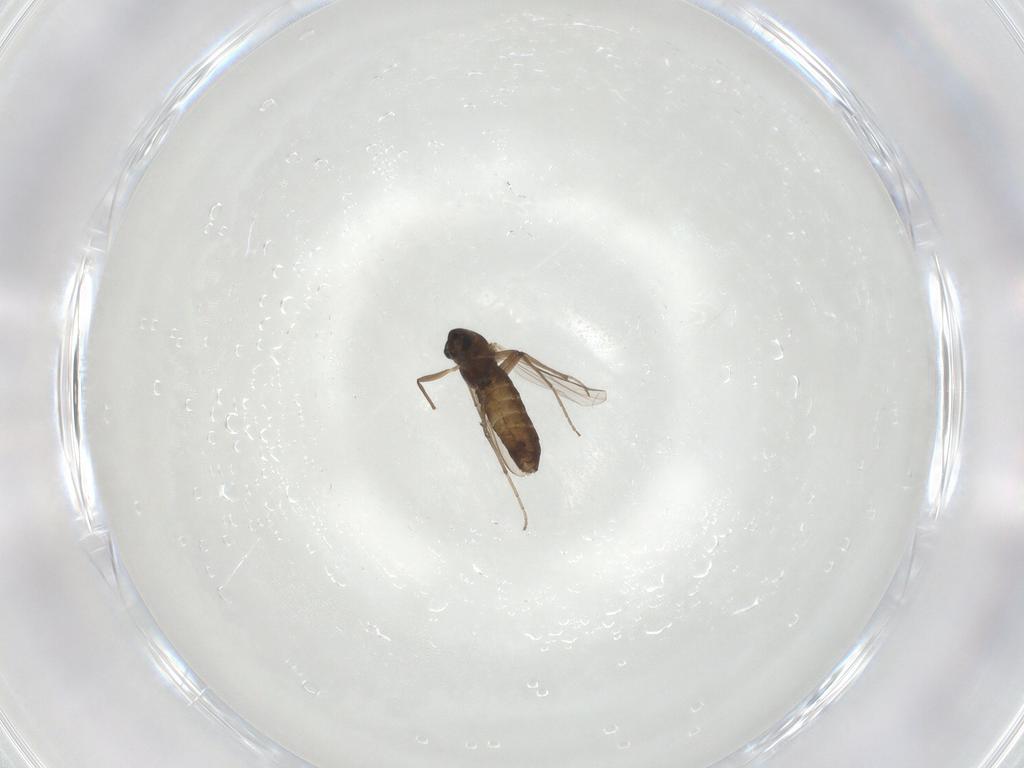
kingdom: Animalia
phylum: Arthropoda
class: Insecta
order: Diptera
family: Chironomidae
